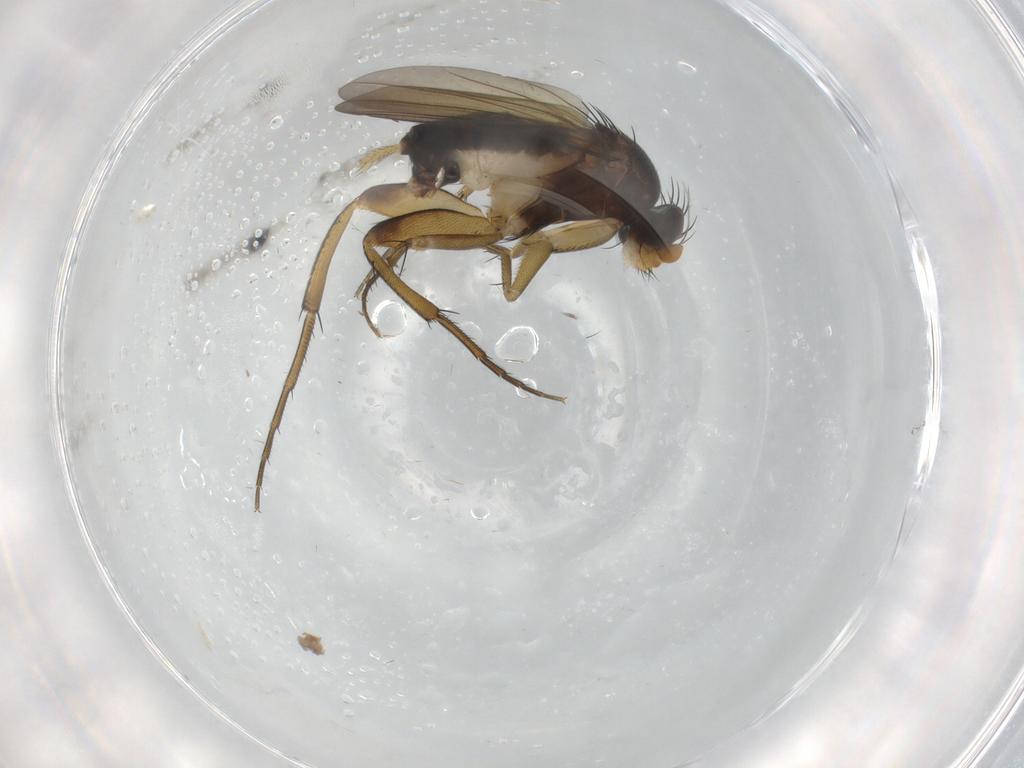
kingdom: Animalia
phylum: Arthropoda
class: Insecta
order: Diptera
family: Phoridae
